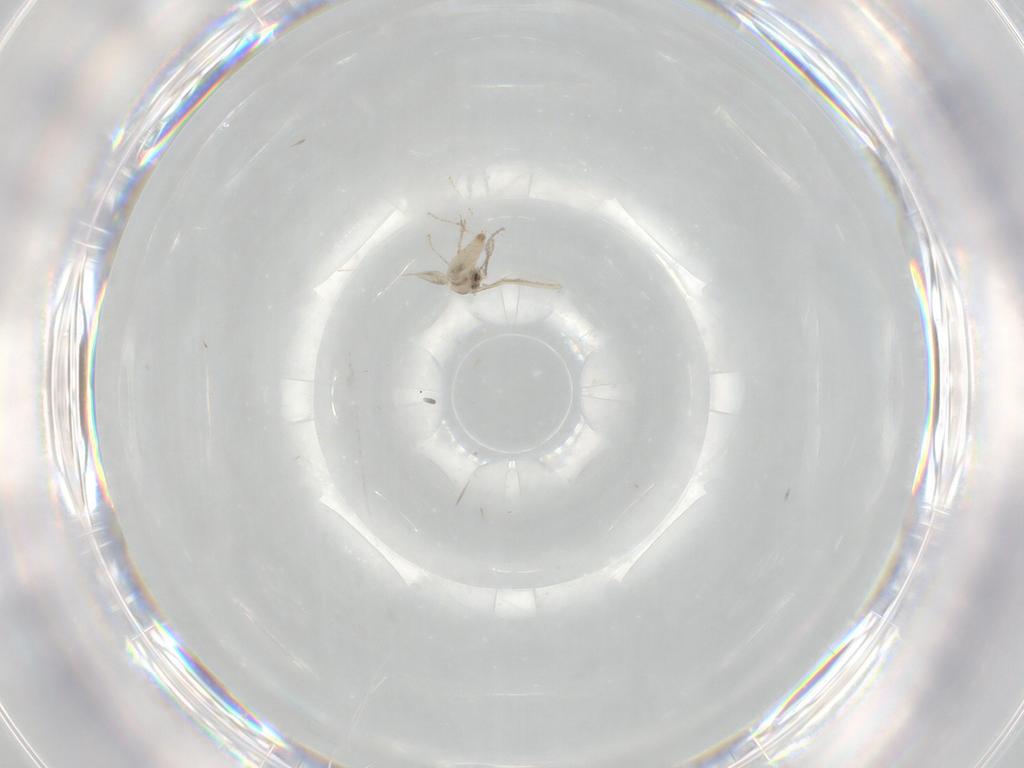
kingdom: Animalia
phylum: Arthropoda
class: Insecta
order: Diptera
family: Cecidomyiidae
